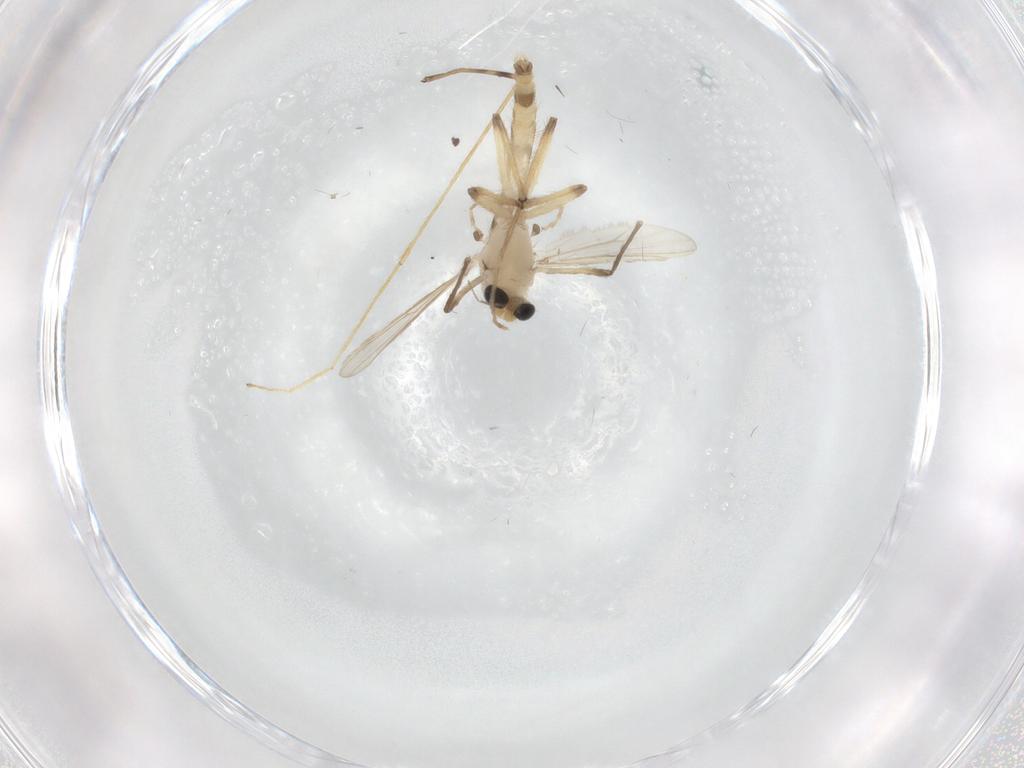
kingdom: Animalia
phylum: Arthropoda
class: Insecta
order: Diptera
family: Chironomidae
